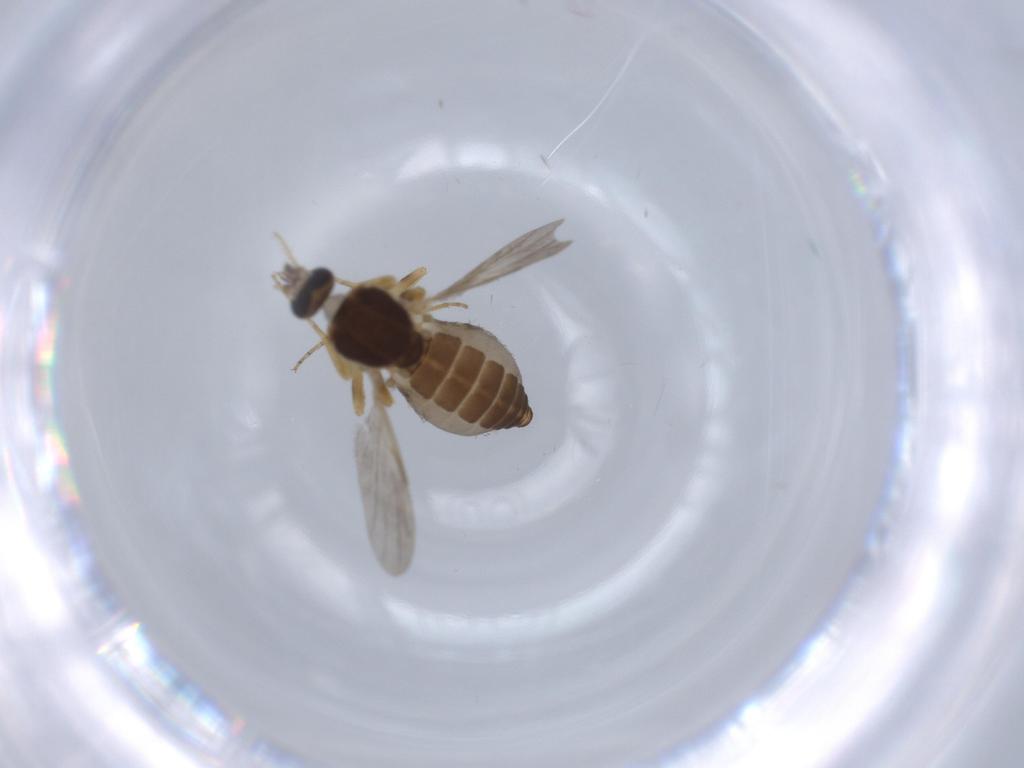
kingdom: Animalia
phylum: Arthropoda
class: Insecta
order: Diptera
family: Ceratopogonidae
